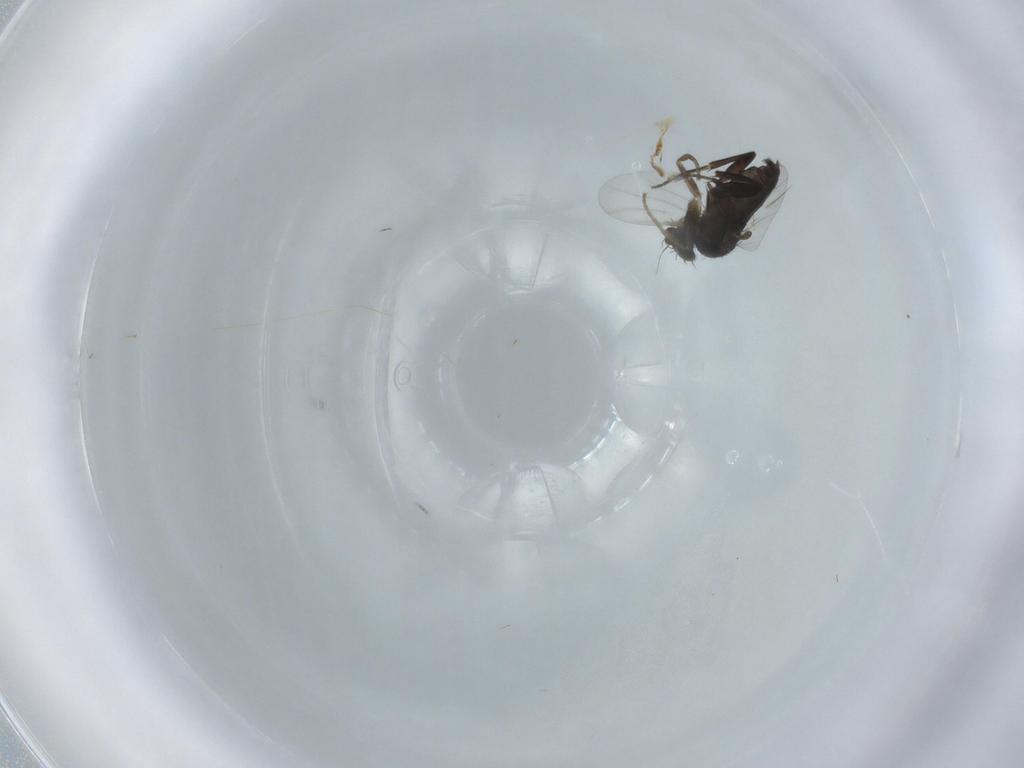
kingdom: Animalia
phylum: Arthropoda
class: Insecta
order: Diptera
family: Phoridae
